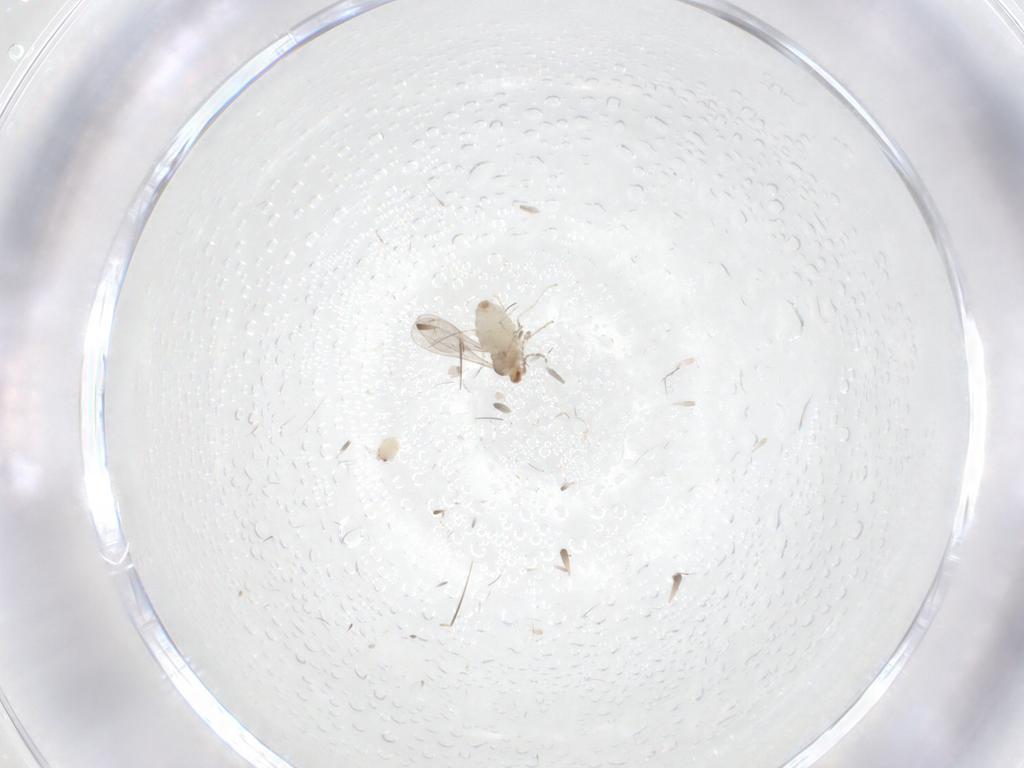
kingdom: Animalia
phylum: Arthropoda
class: Insecta
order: Diptera
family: Cecidomyiidae
